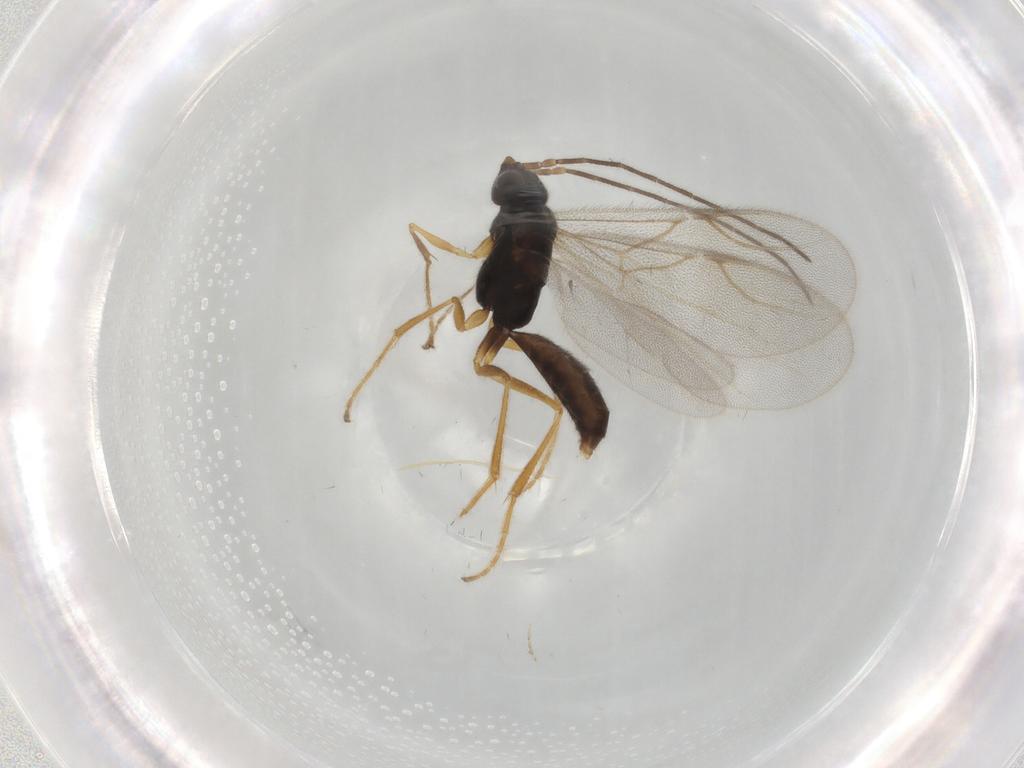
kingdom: Animalia
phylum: Arthropoda
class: Insecta
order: Hymenoptera
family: Dryinidae
